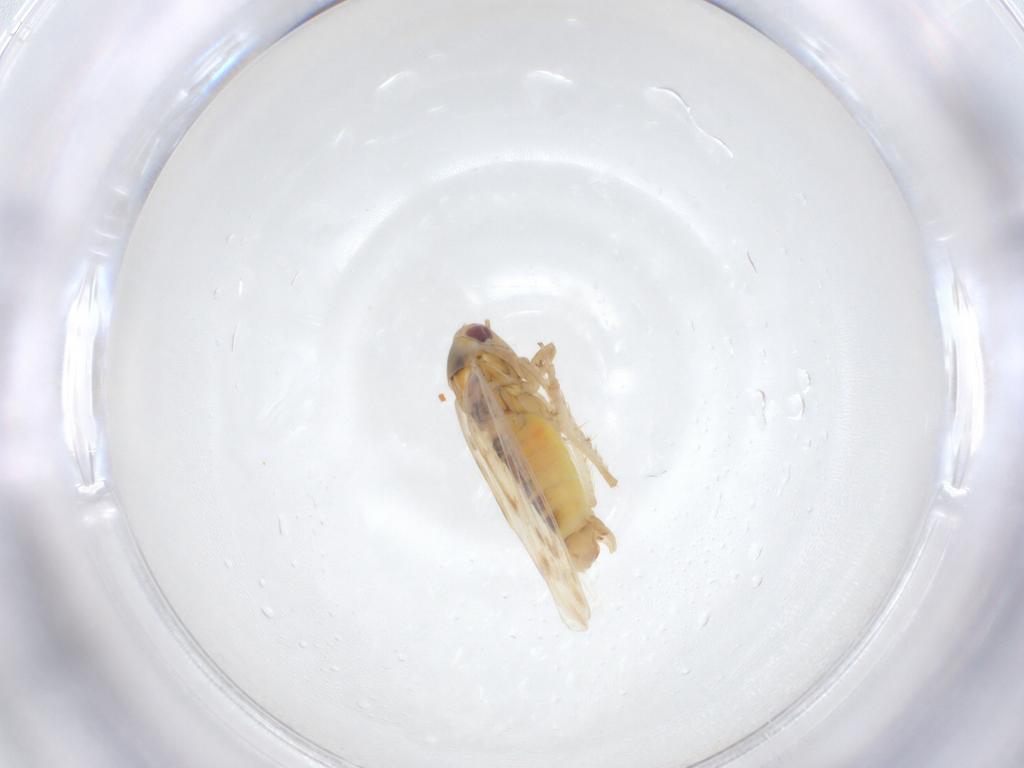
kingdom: Animalia
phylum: Arthropoda
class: Insecta
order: Hemiptera
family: Cicadellidae
